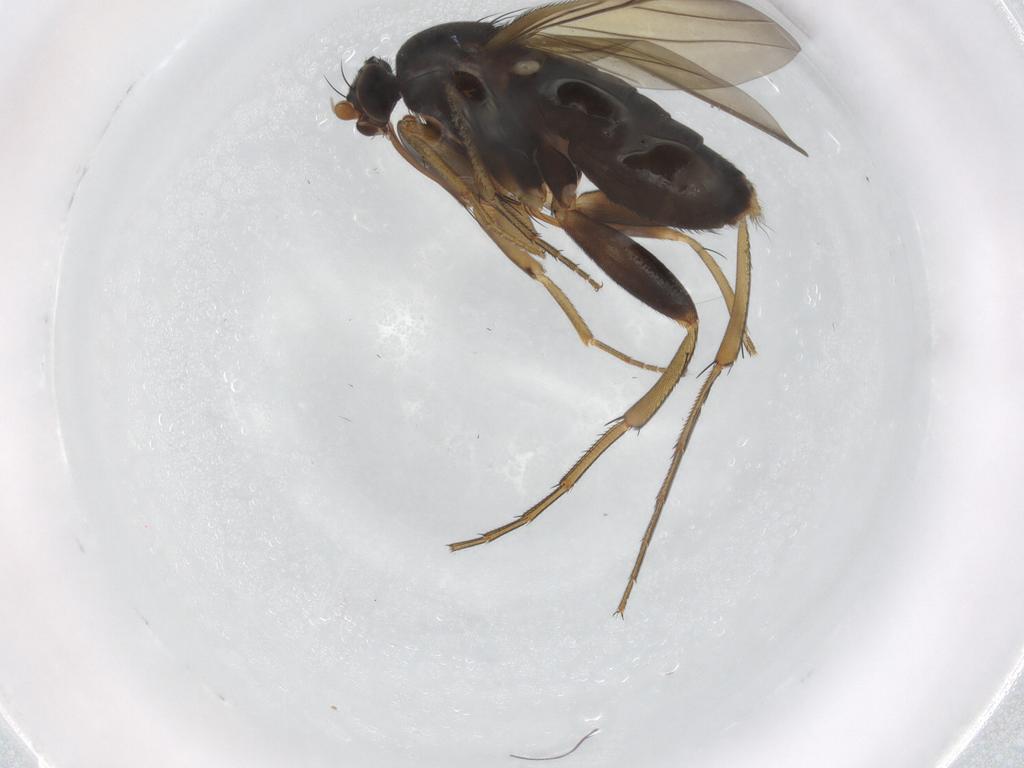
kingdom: Animalia
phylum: Arthropoda
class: Insecta
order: Diptera
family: Phoridae
